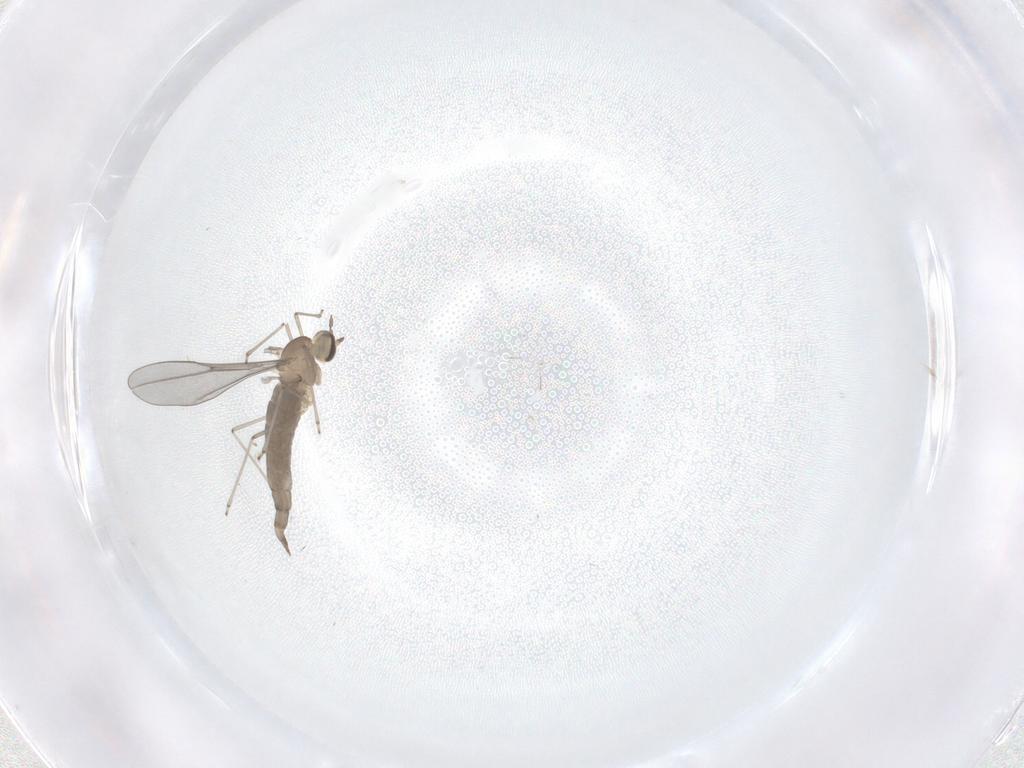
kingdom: Animalia
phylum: Arthropoda
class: Insecta
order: Diptera
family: Cecidomyiidae
